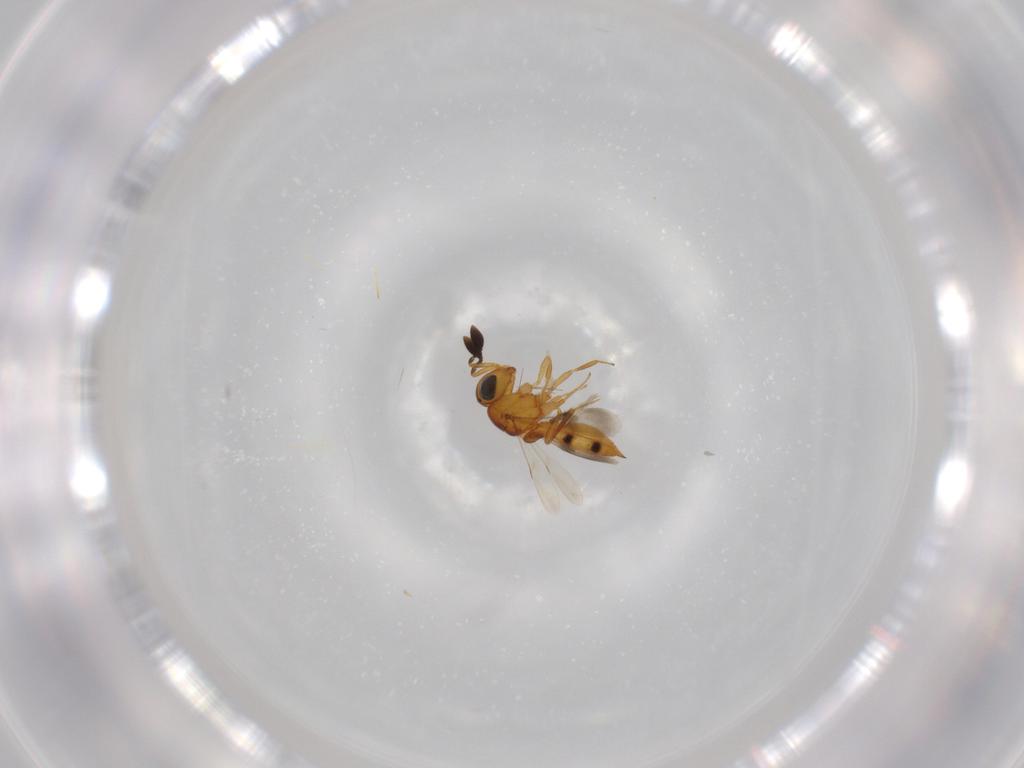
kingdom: Animalia
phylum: Arthropoda
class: Insecta
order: Hymenoptera
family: Scelionidae
